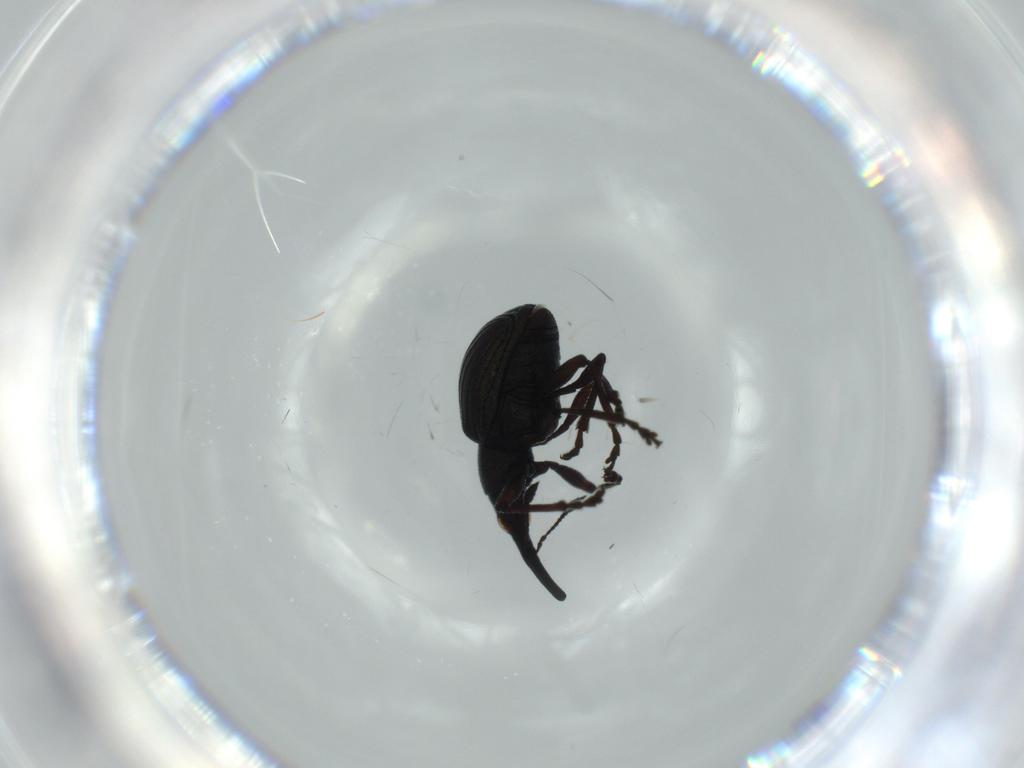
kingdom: Animalia
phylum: Arthropoda
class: Insecta
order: Coleoptera
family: Brentidae
